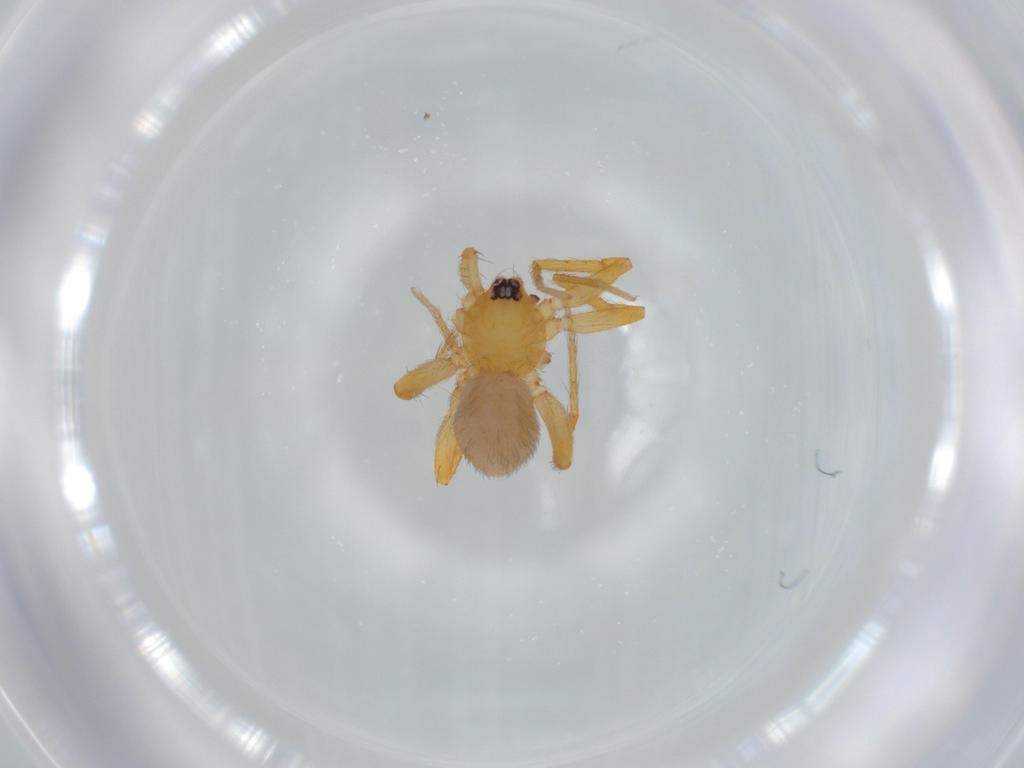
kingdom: Animalia
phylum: Arthropoda
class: Arachnida
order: Araneae
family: Oonopidae
